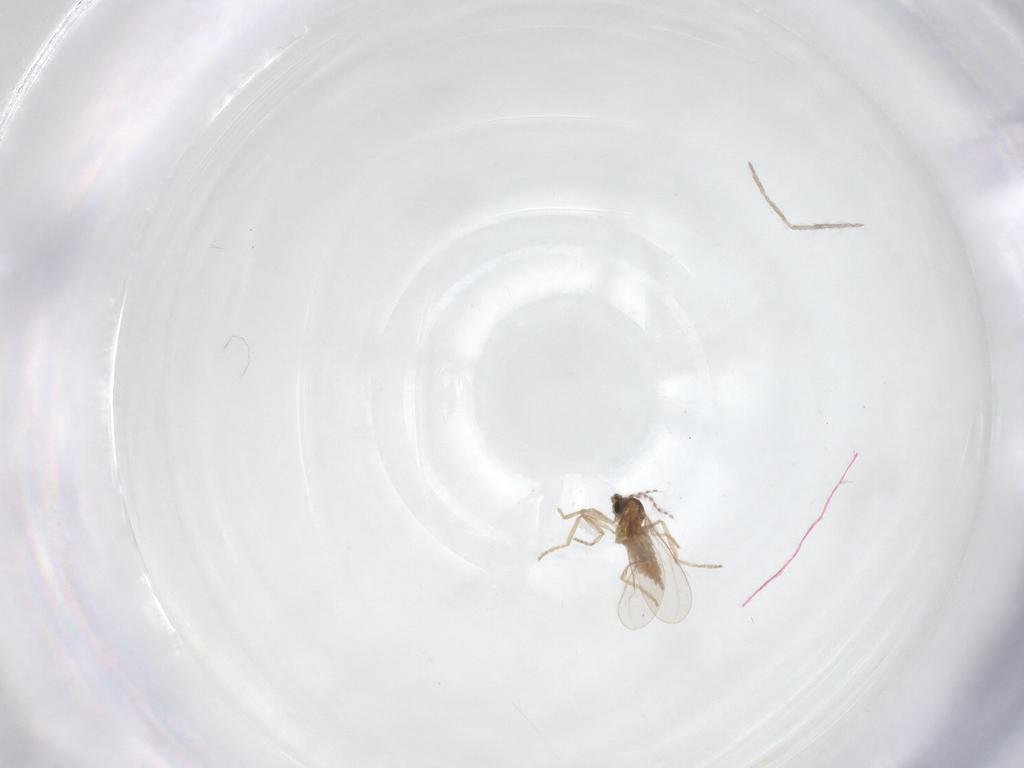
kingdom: Animalia
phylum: Arthropoda
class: Insecta
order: Diptera
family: Cecidomyiidae
